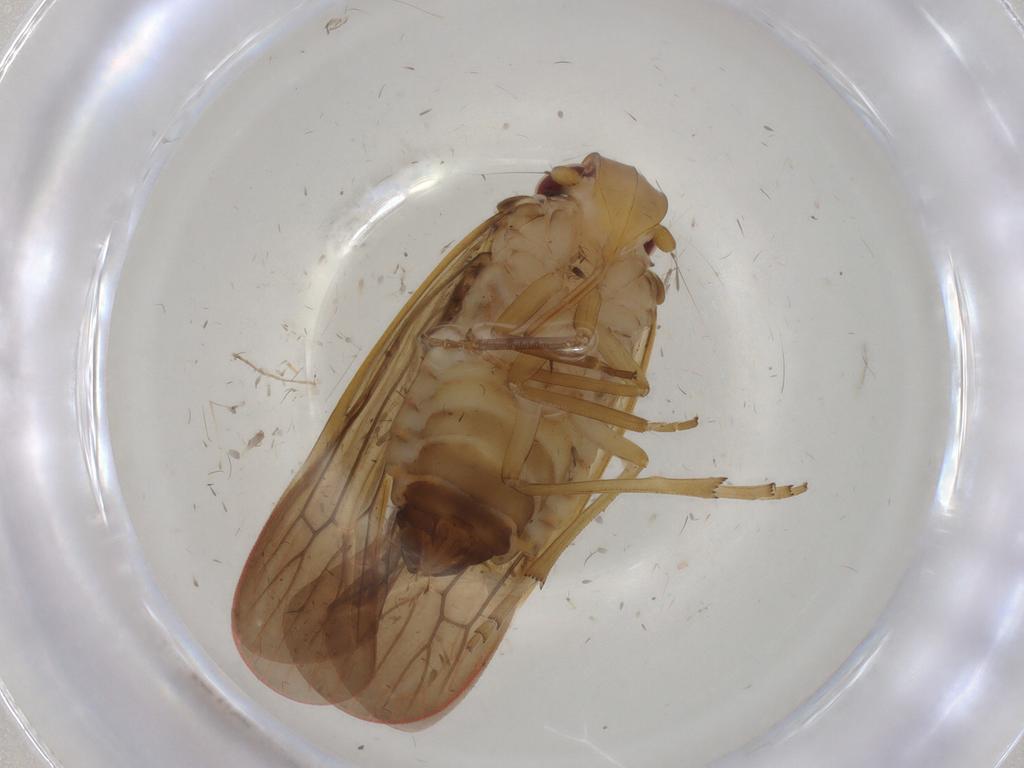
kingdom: Animalia
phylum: Arthropoda
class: Insecta
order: Hemiptera
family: Achilidae
